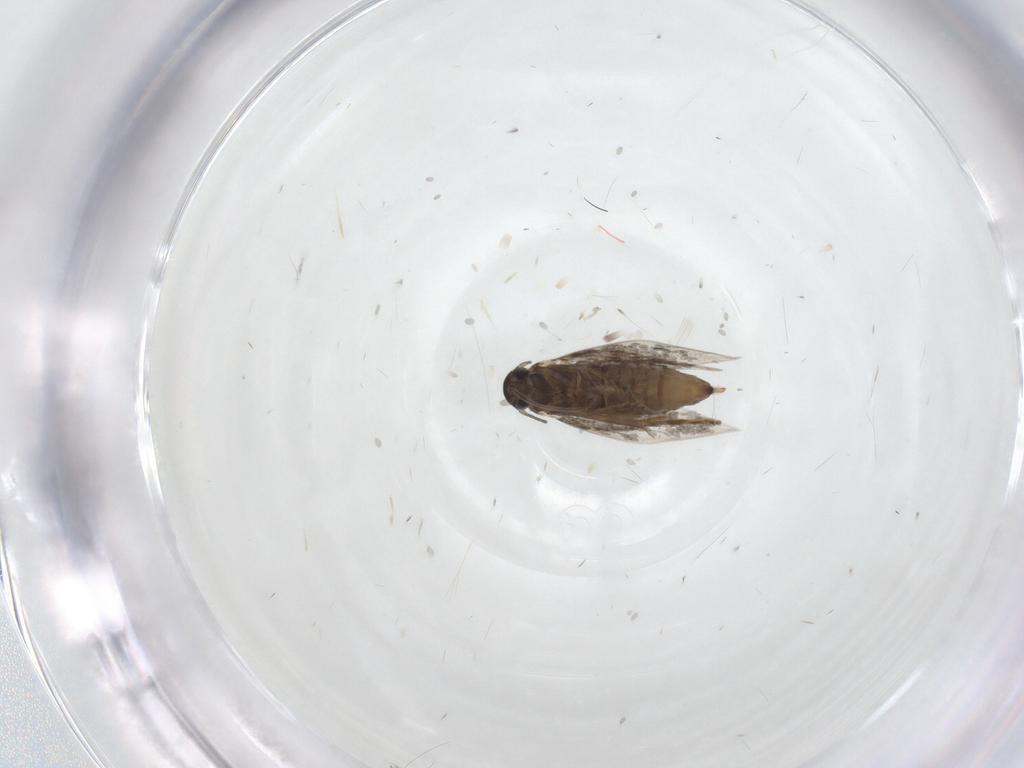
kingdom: Animalia
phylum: Arthropoda
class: Insecta
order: Lepidoptera
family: Heliozelidae
